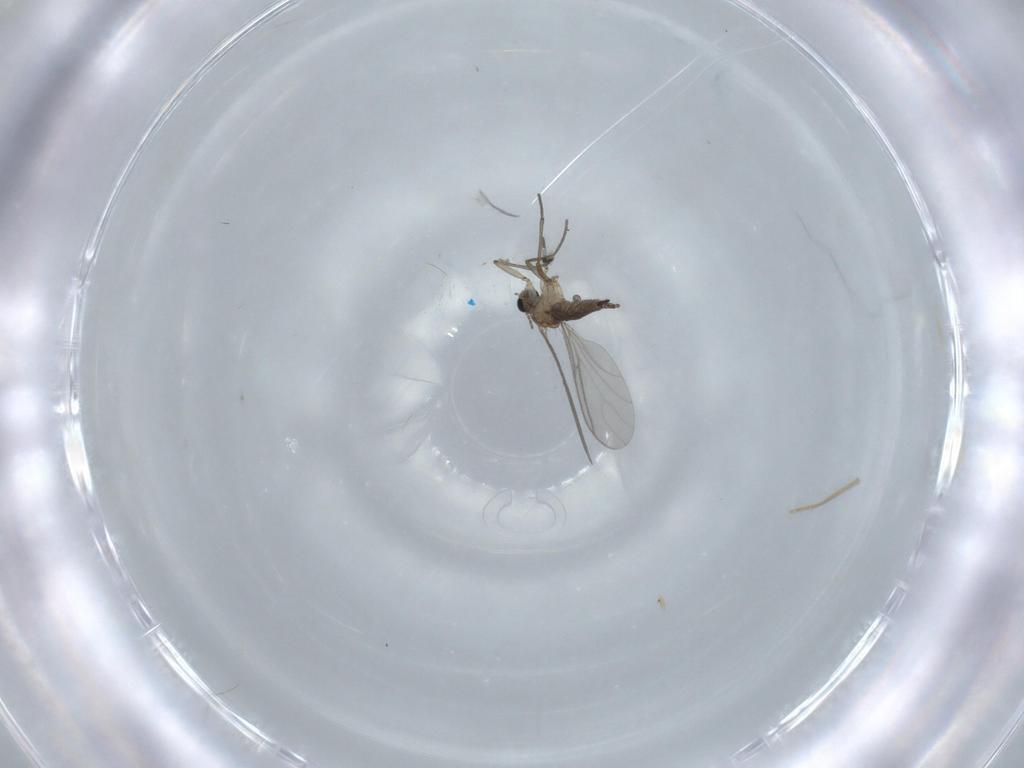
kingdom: Animalia
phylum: Arthropoda
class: Insecta
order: Diptera
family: Sciaridae
